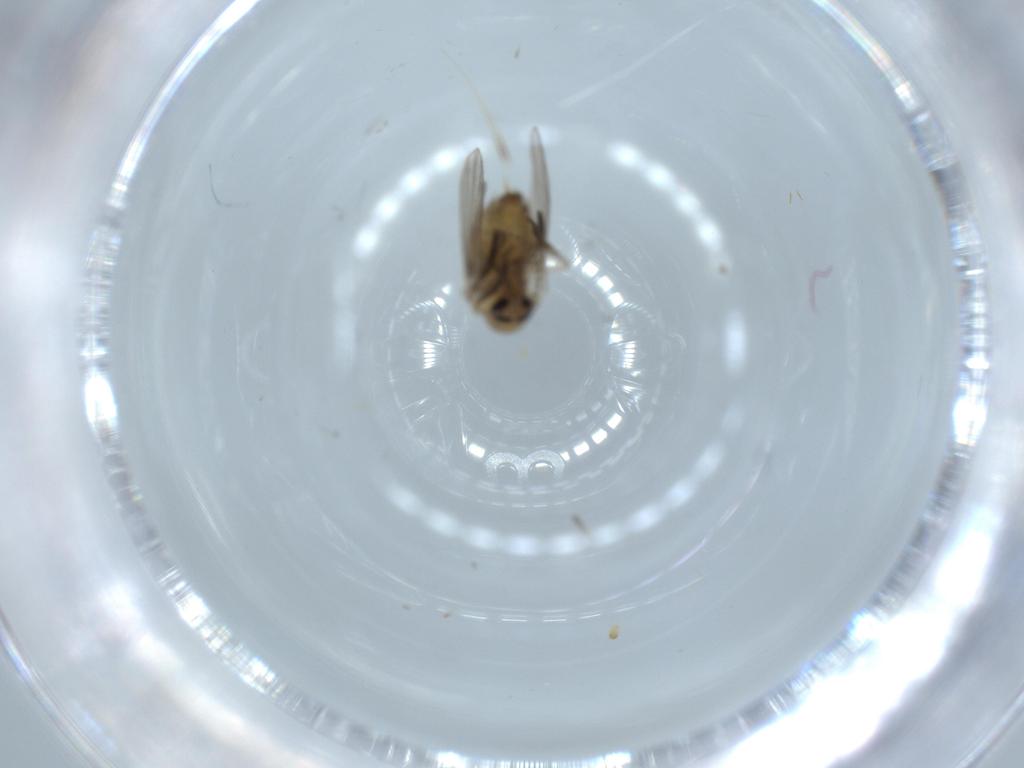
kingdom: Animalia
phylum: Arthropoda
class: Insecta
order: Diptera
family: Psychodidae
